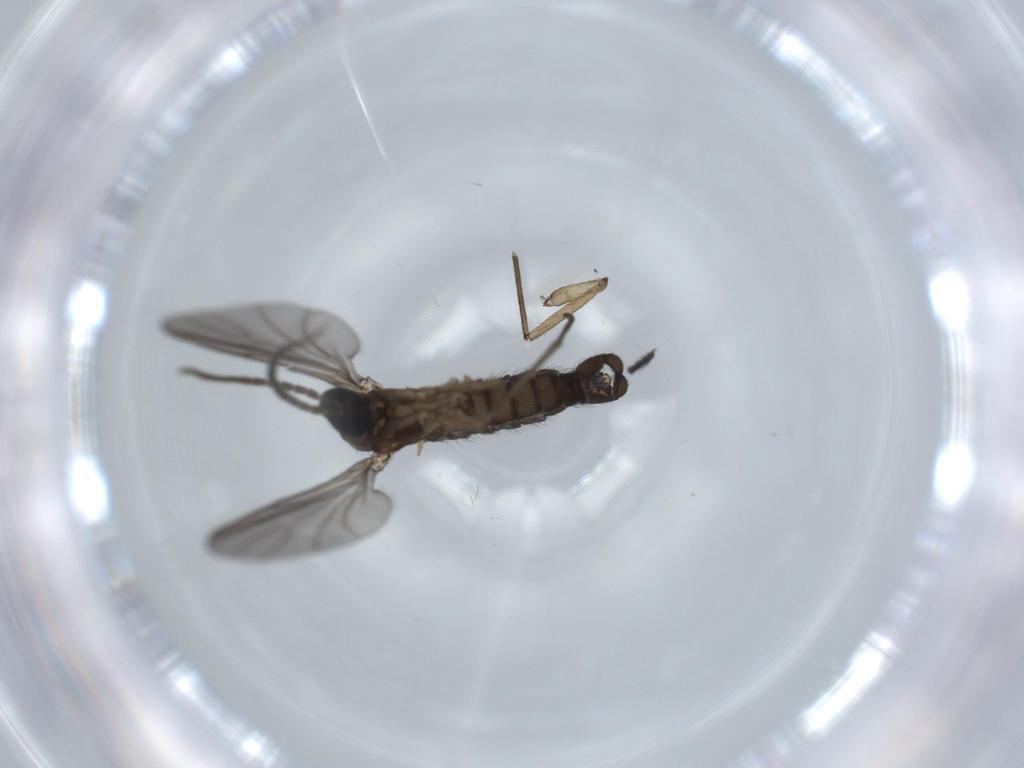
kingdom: Animalia
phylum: Arthropoda
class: Insecta
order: Diptera
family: Sciaridae
